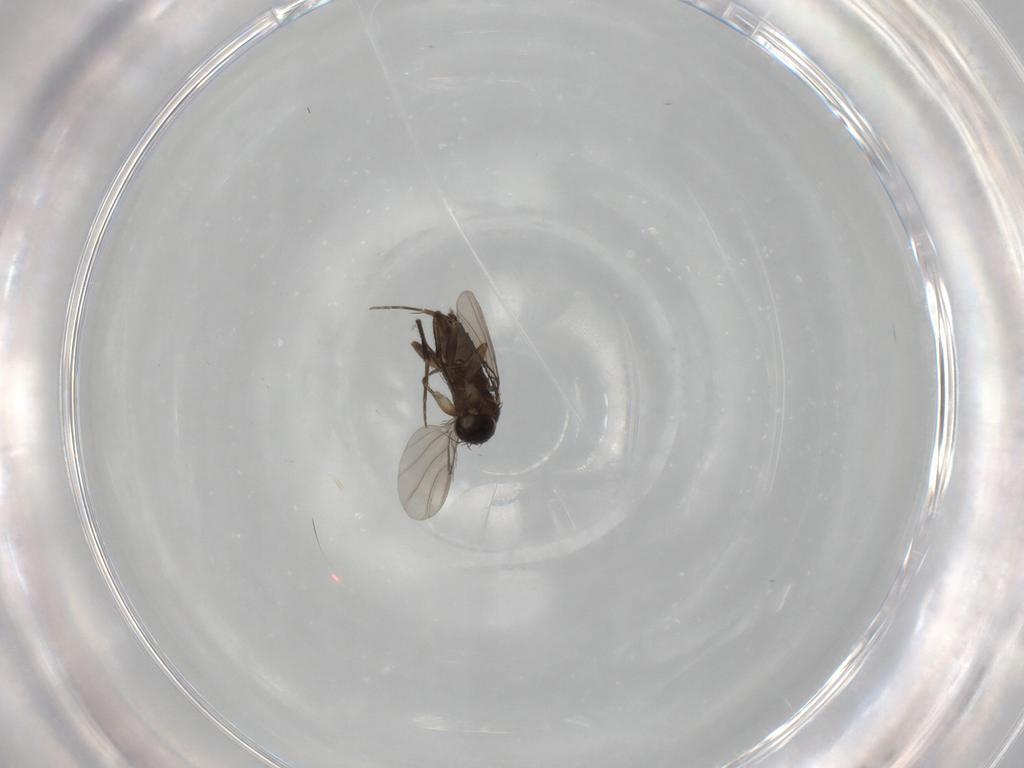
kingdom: Animalia
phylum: Arthropoda
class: Insecta
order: Diptera
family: Phoridae
